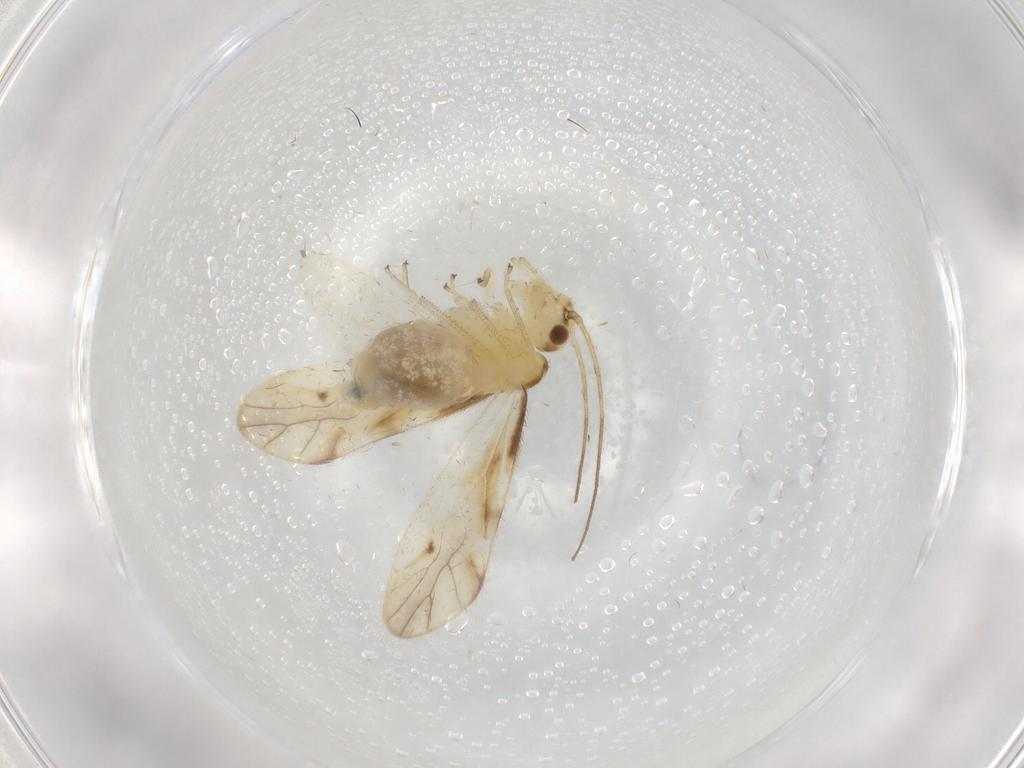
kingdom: Animalia
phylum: Arthropoda
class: Insecta
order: Psocodea
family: Caeciliusidae
